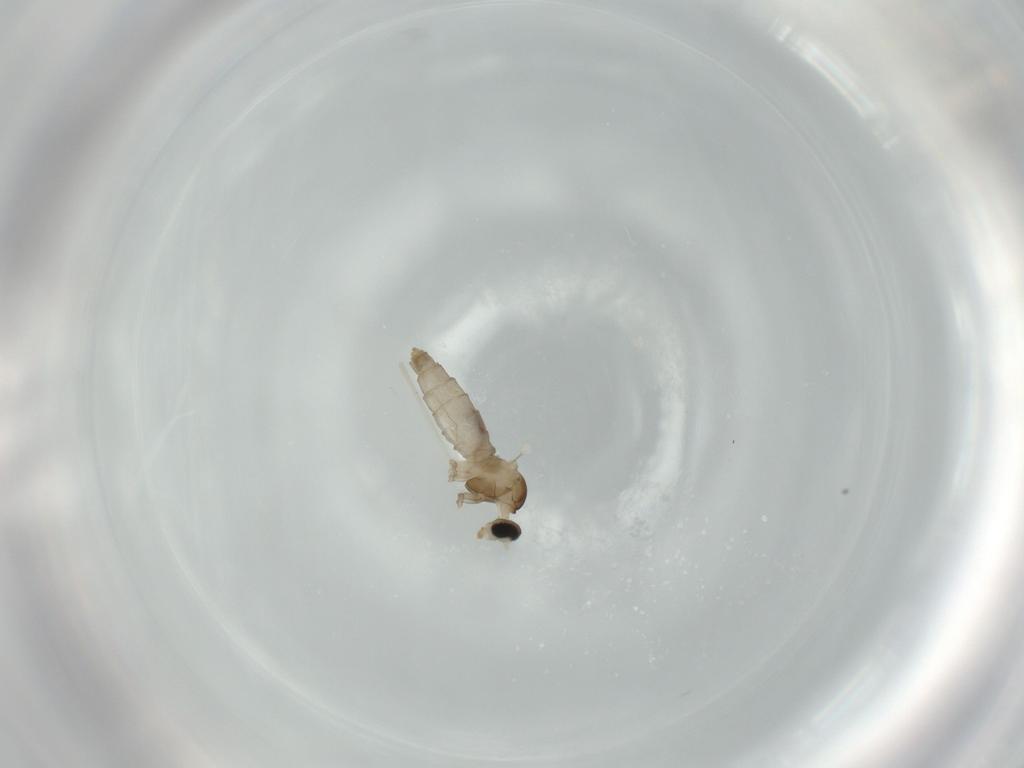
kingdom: Animalia
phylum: Arthropoda
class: Insecta
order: Diptera
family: Cecidomyiidae
